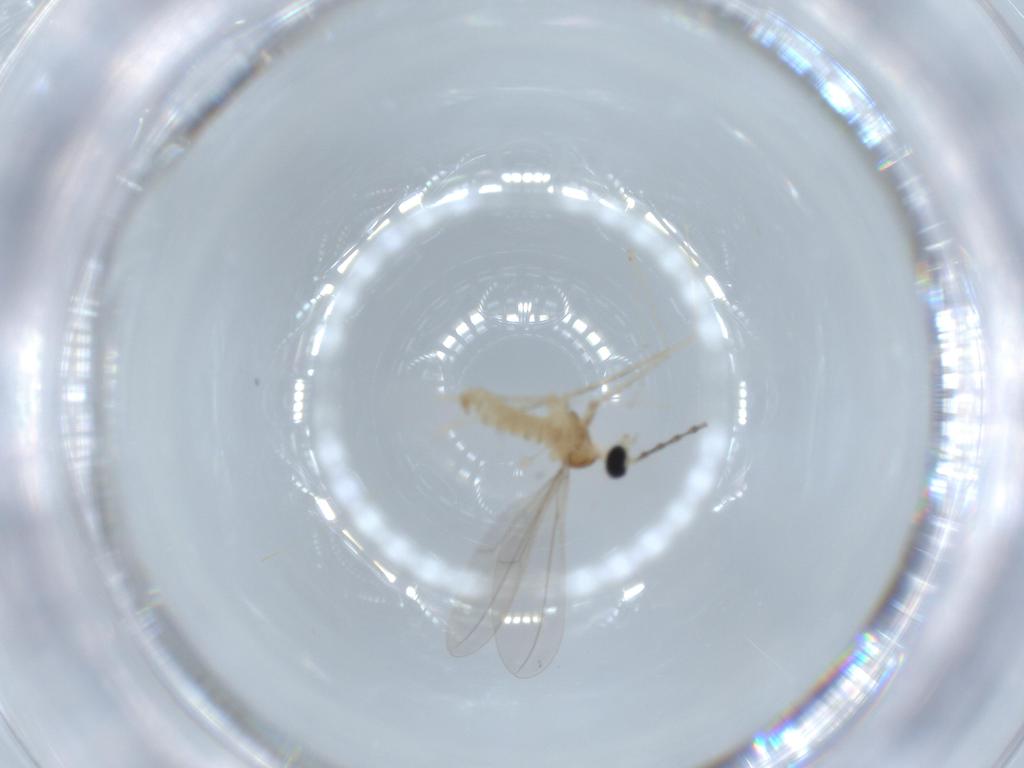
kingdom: Animalia
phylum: Arthropoda
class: Insecta
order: Diptera
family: Cecidomyiidae
